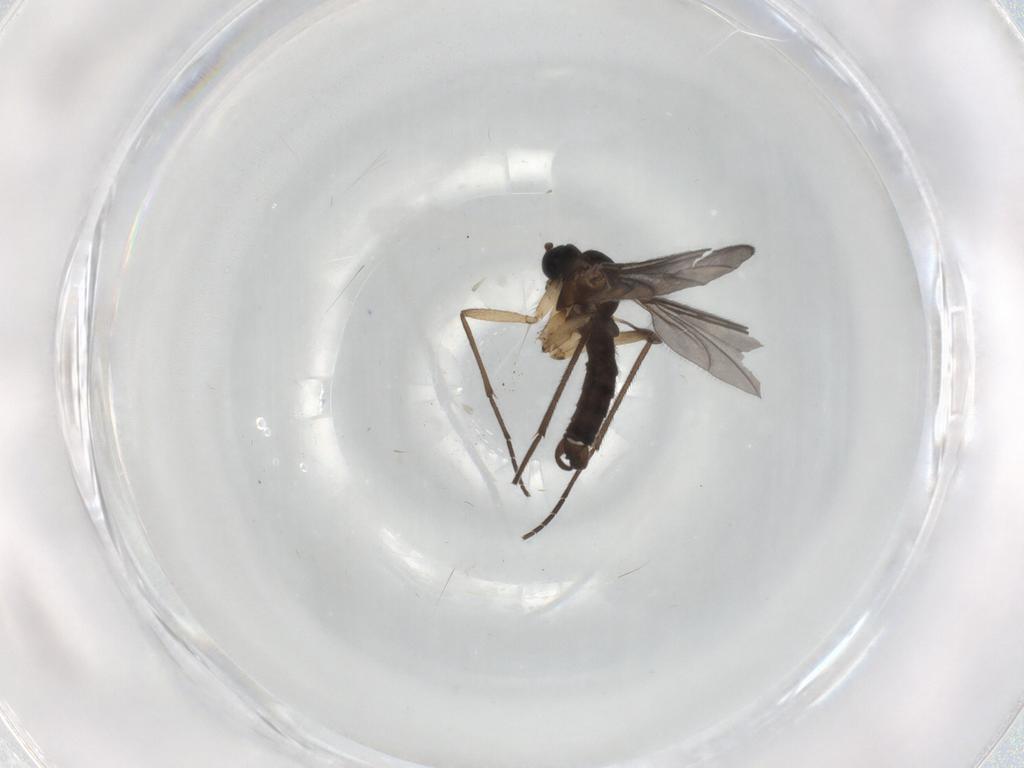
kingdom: Animalia
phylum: Arthropoda
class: Insecta
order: Diptera
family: Sciaridae
